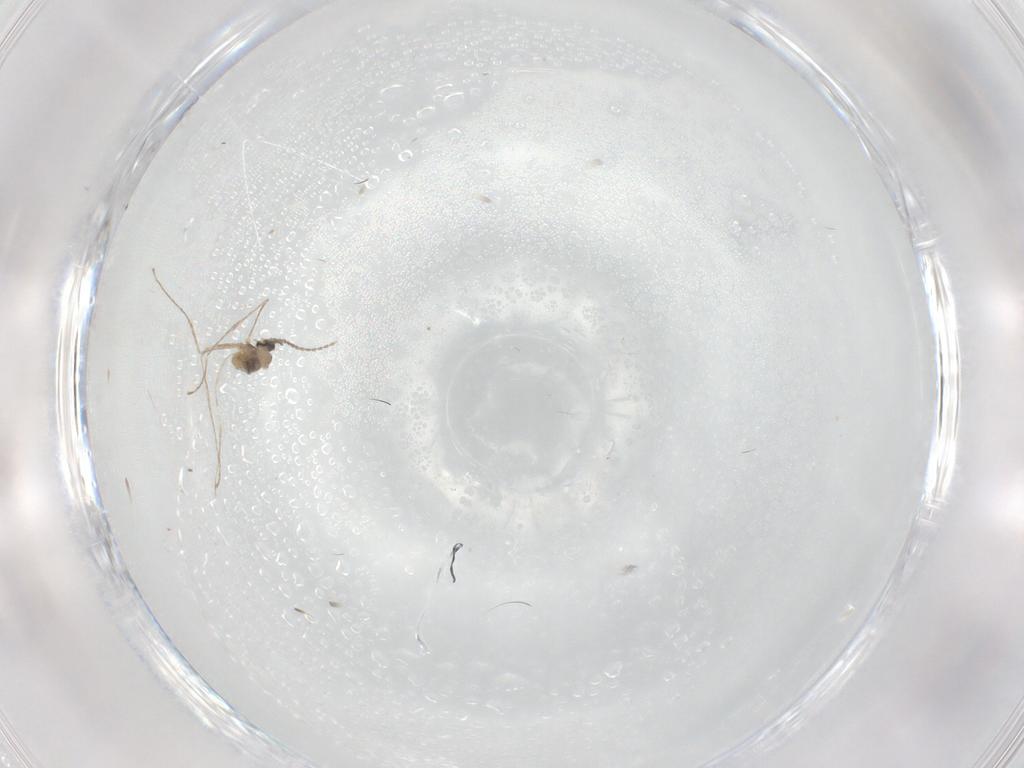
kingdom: Animalia
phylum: Arthropoda
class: Insecta
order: Diptera
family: Cecidomyiidae
